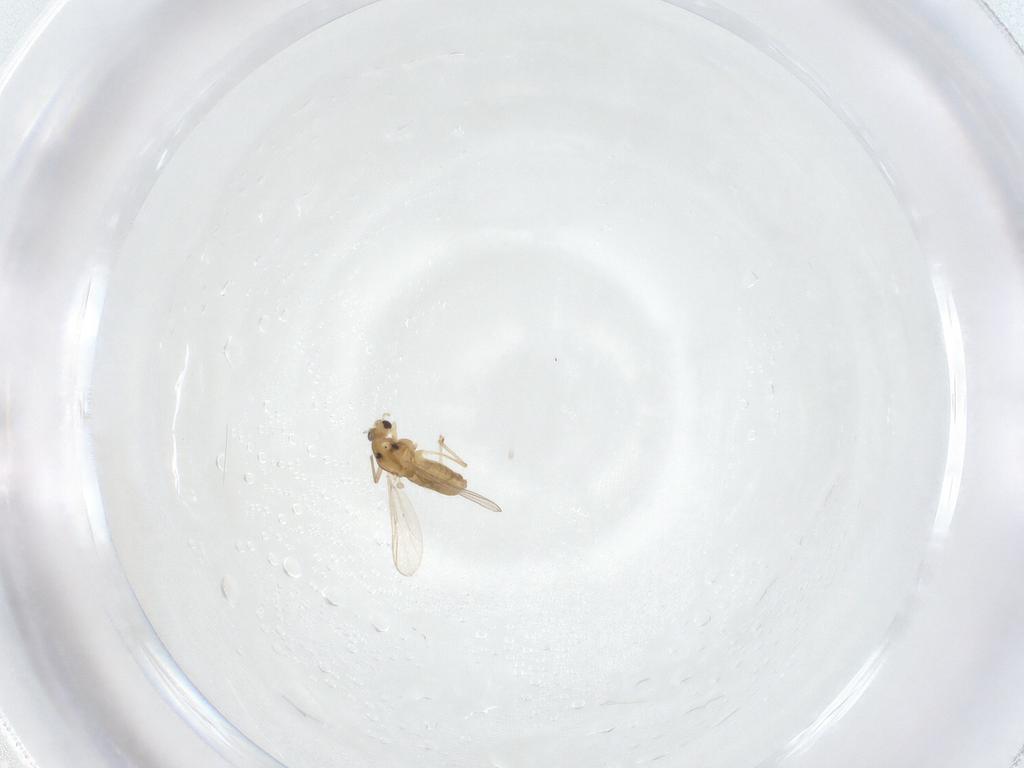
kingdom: Animalia
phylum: Arthropoda
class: Insecta
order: Diptera
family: Chironomidae
